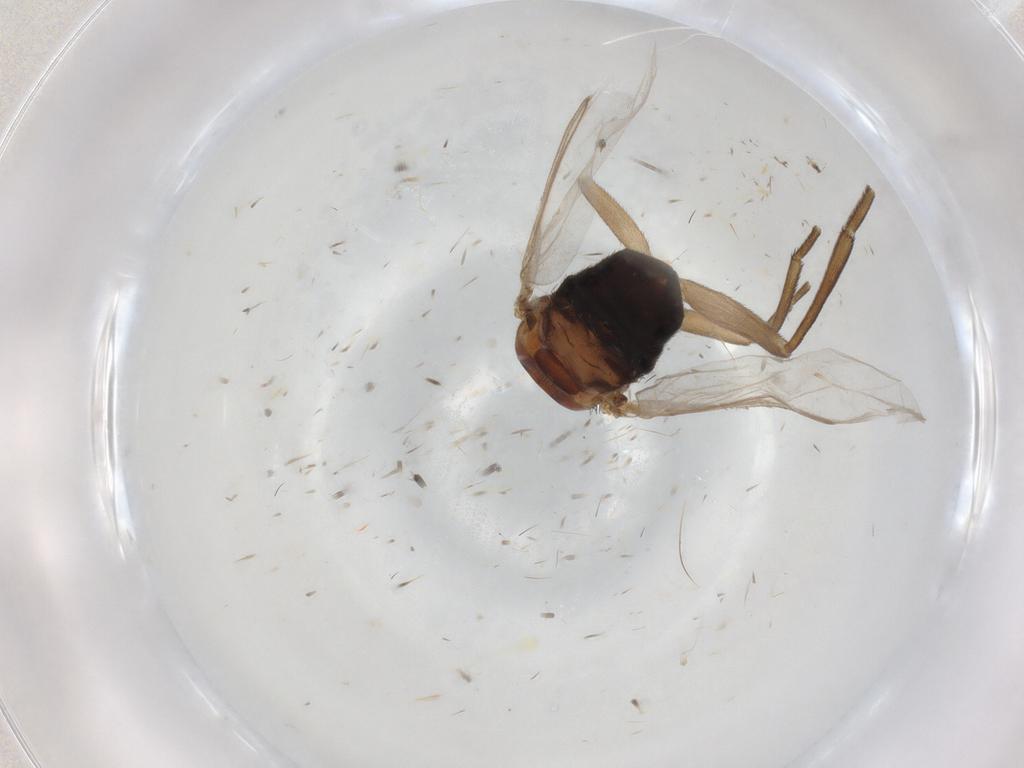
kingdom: Animalia
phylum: Arthropoda
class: Insecta
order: Diptera
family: Chironomidae
